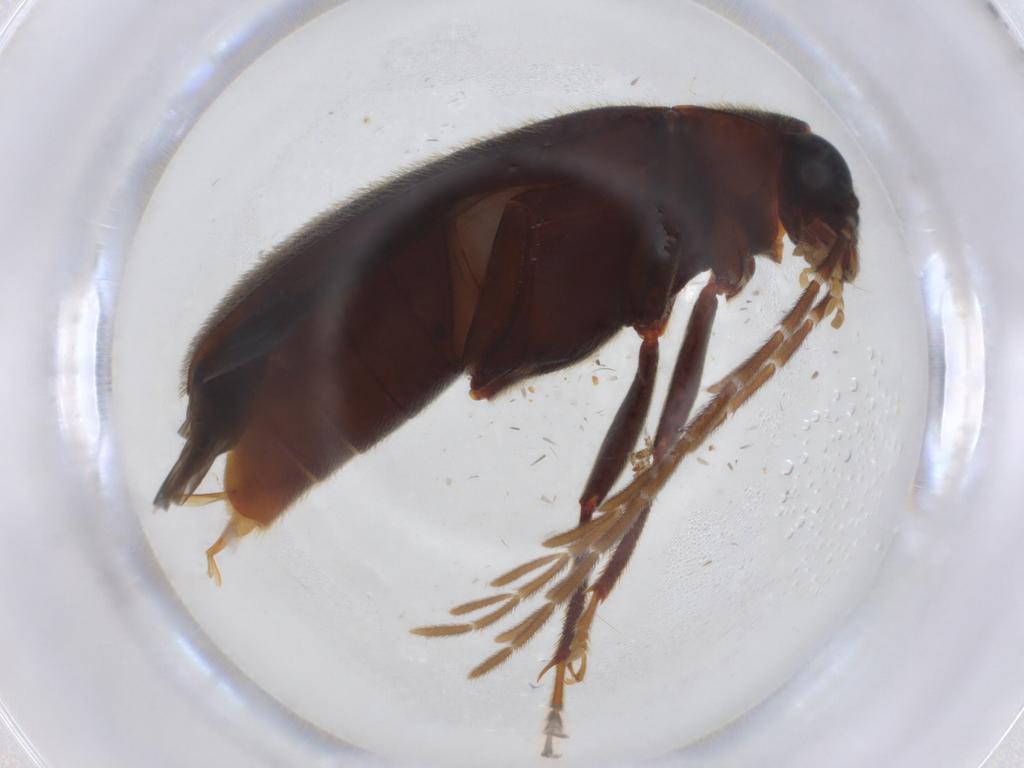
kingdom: Animalia
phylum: Arthropoda
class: Insecta
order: Coleoptera
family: Ptilodactylidae
